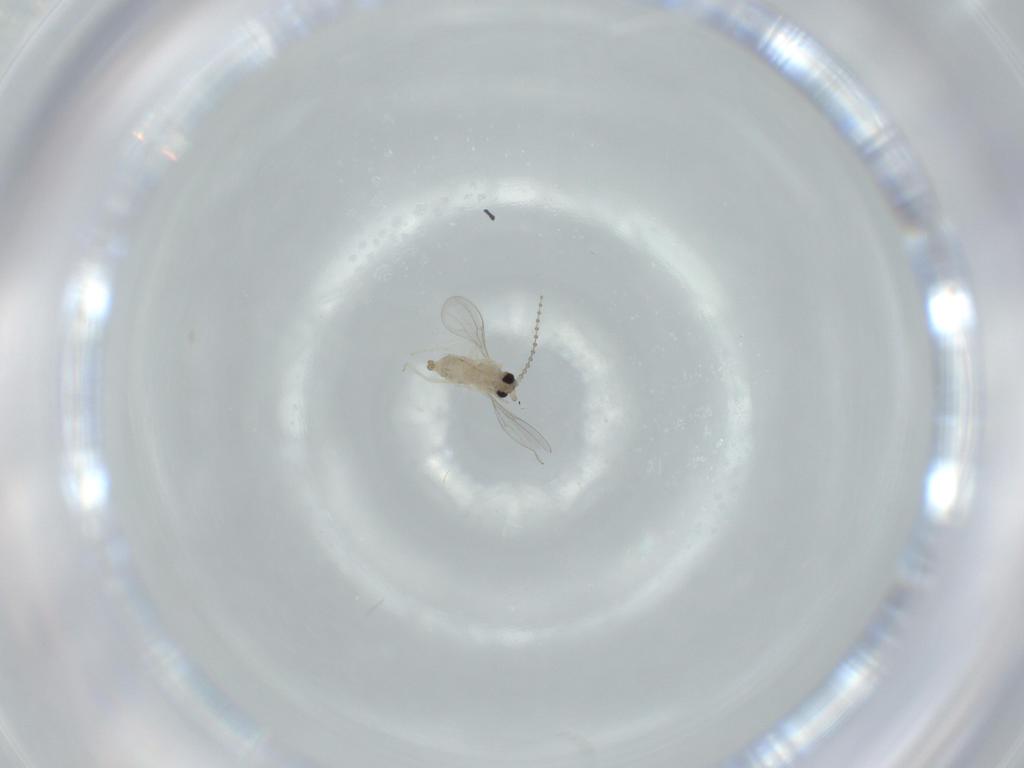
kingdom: Animalia
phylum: Arthropoda
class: Insecta
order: Diptera
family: Cecidomyiidae
